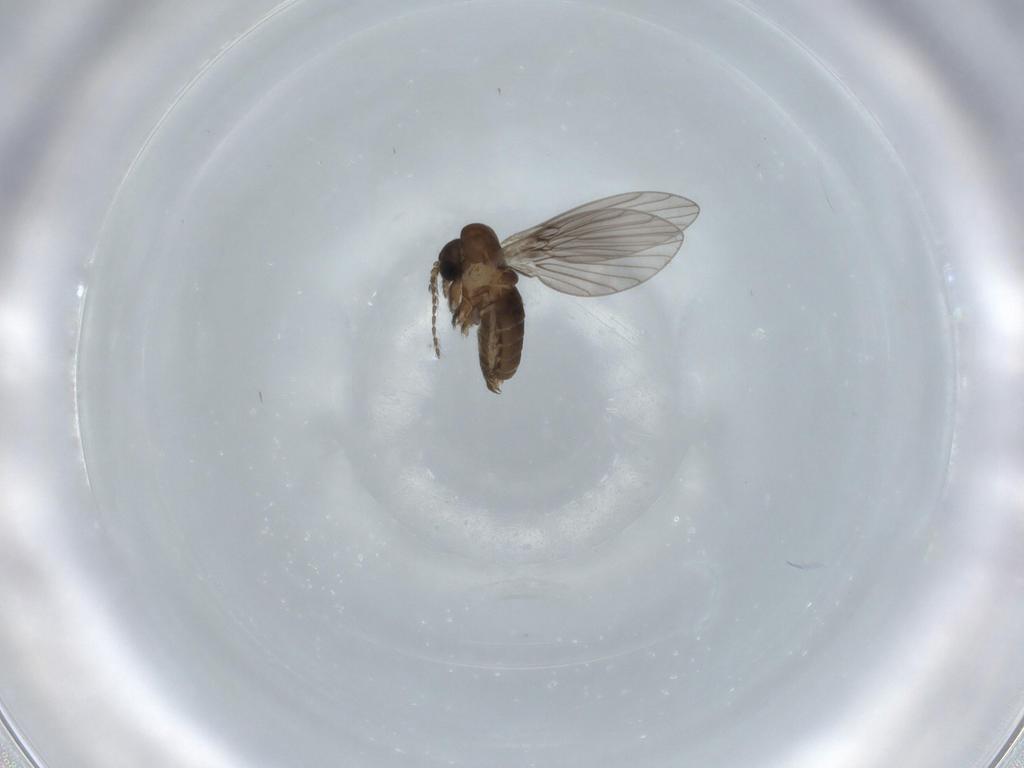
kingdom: Animalia
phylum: Arthropoda
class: Insecta
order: Diptera
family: Psychodidae
